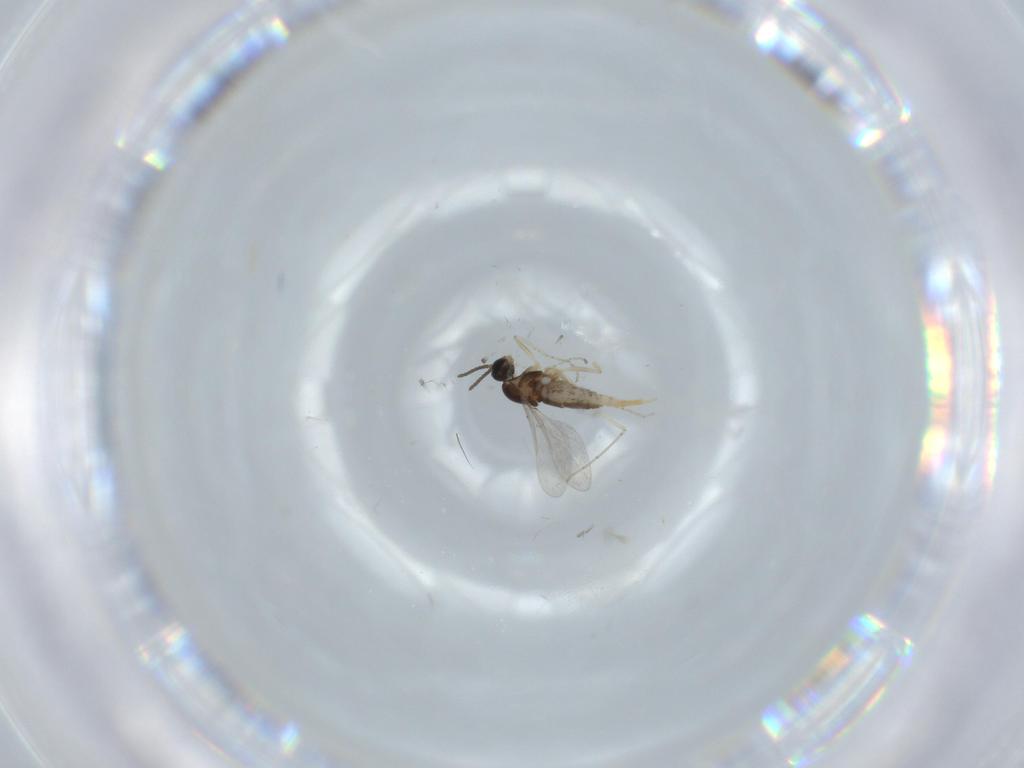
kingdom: Animalia
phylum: Arthropoda
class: Insecta
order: Diptera
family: Cecidomyiidae
